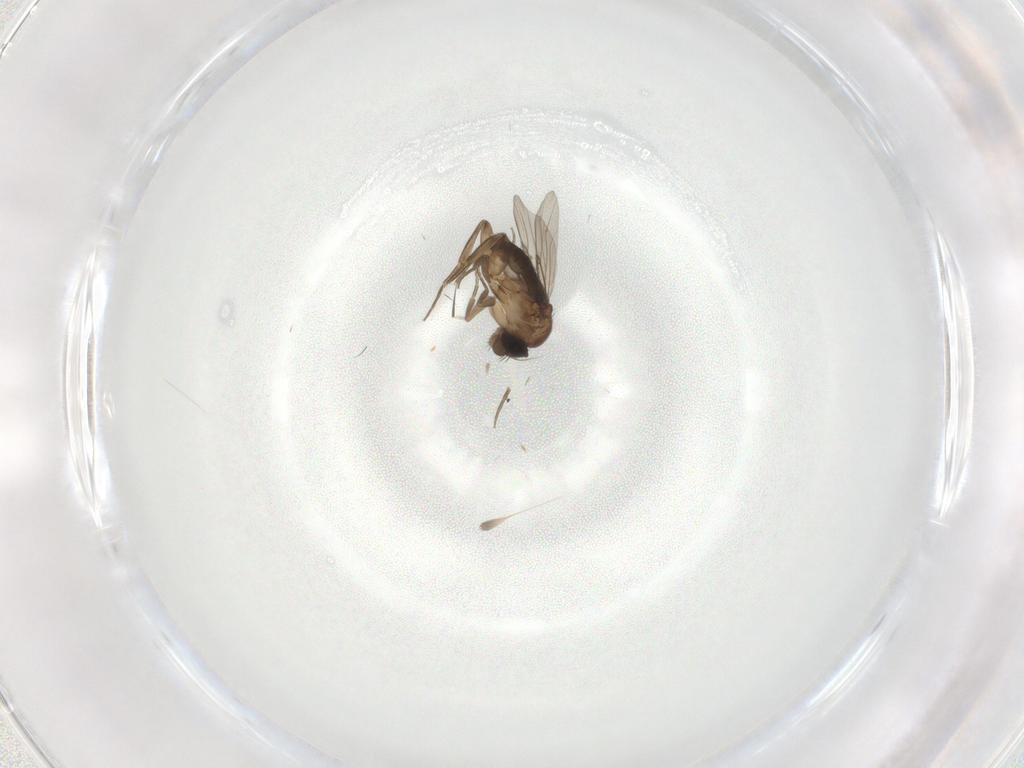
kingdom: Animalia
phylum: Arthropoda
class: Insecta
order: Diptera
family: Phoridae
